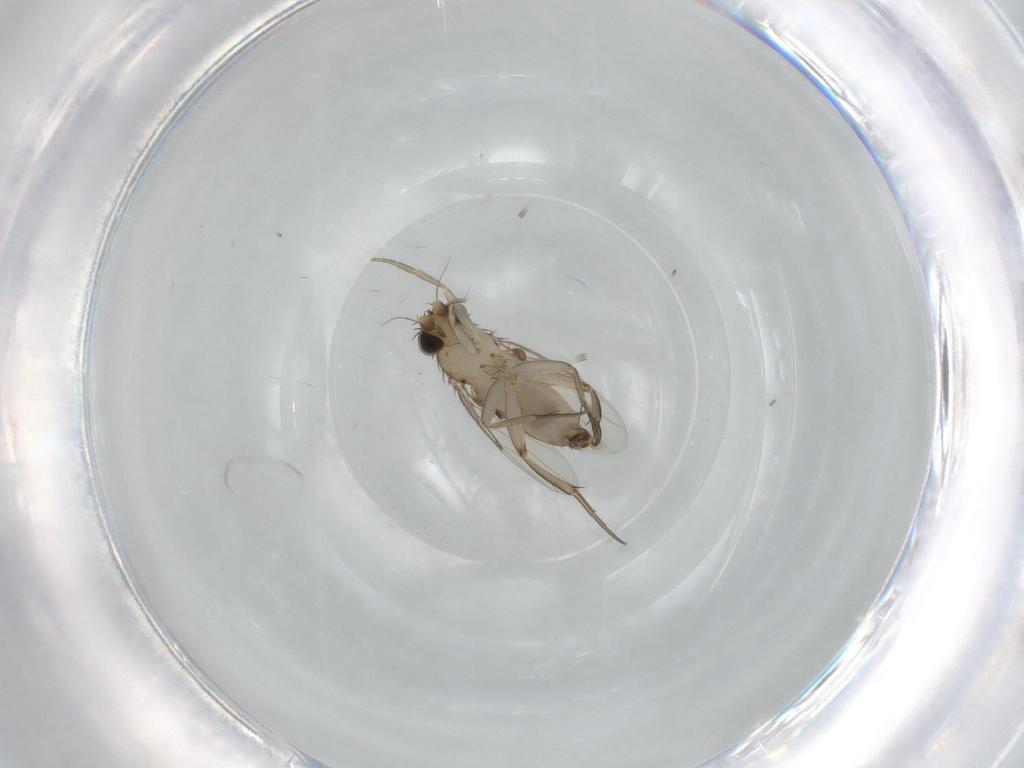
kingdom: Animalia
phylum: Arthropoda
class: Insecta
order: Diptera
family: Phoridae
